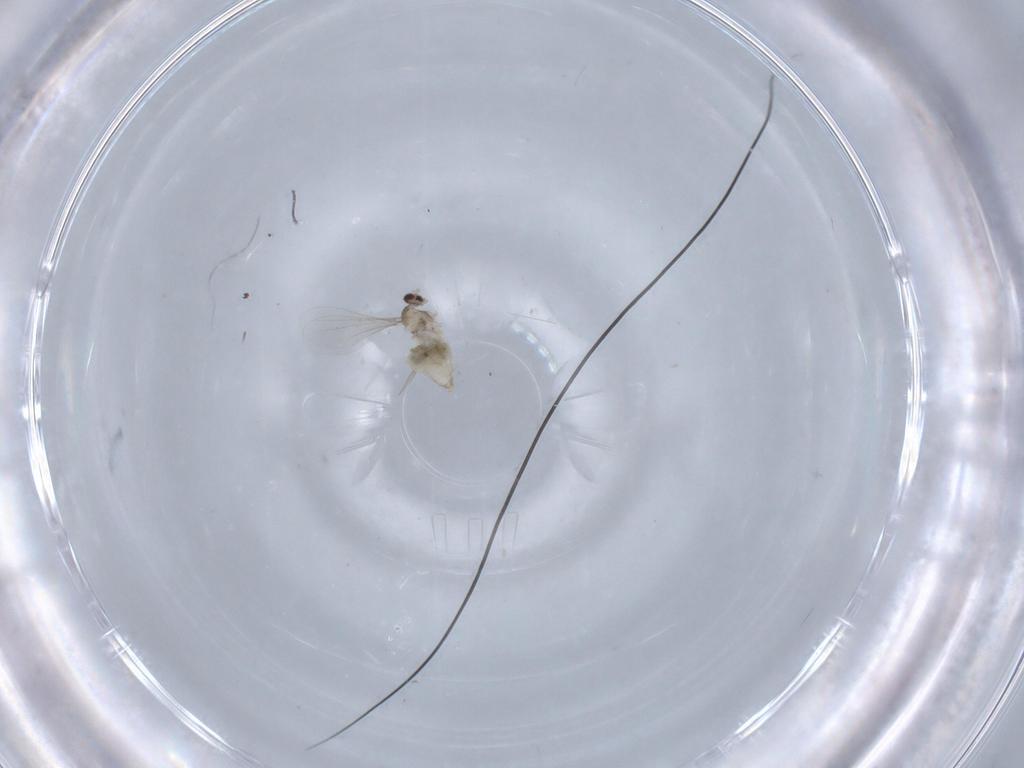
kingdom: Animalia
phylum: Arthropoda
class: Insecta
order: Diptera
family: Cecidomyiidae
